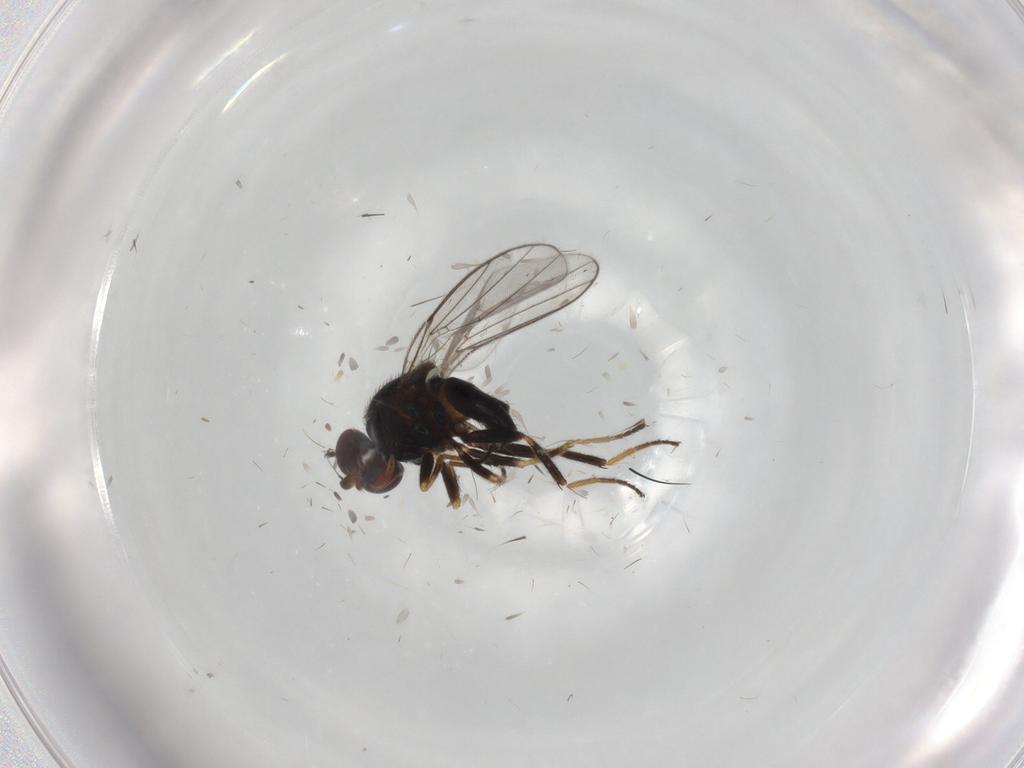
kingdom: Animalia
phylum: Arthropoda
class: Insecta
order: Diptera
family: Chloropidae
